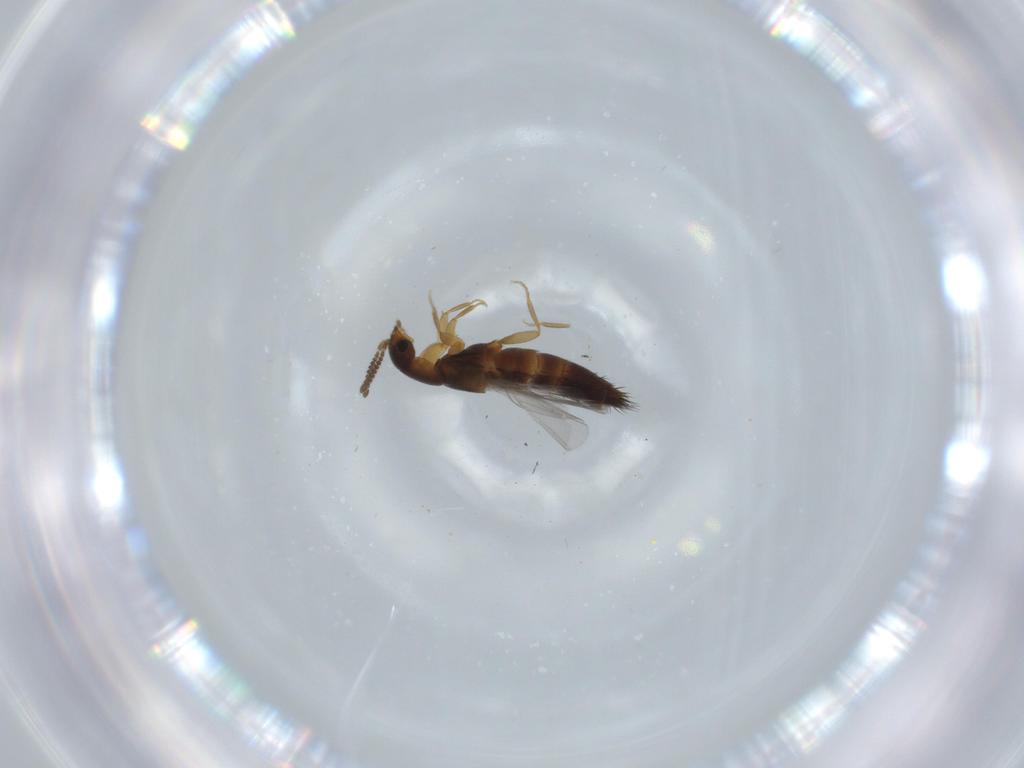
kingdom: Animalia
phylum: Arthropoda
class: Insecta
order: Coleoptera
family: Staphylinidae
